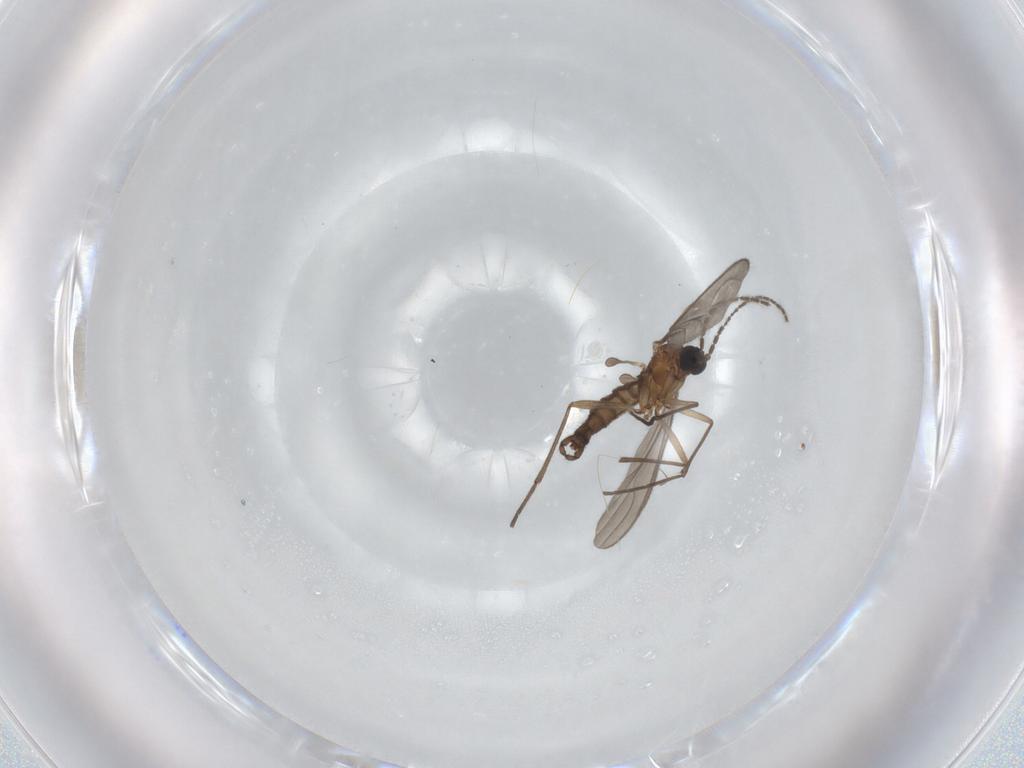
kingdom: Animalia
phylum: Arthropoda
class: Insecta
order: Diptera
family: Sciaridae
